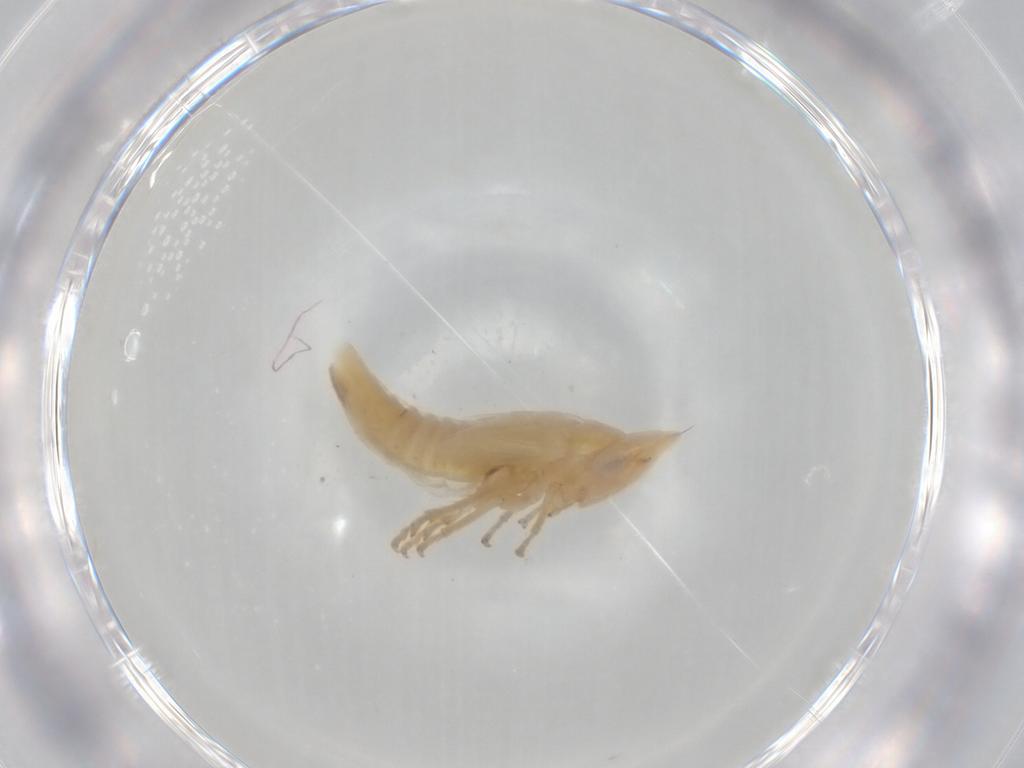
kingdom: Animalia
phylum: Arthropoda
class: Insecta
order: Hemiptera
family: Cicadellidae
